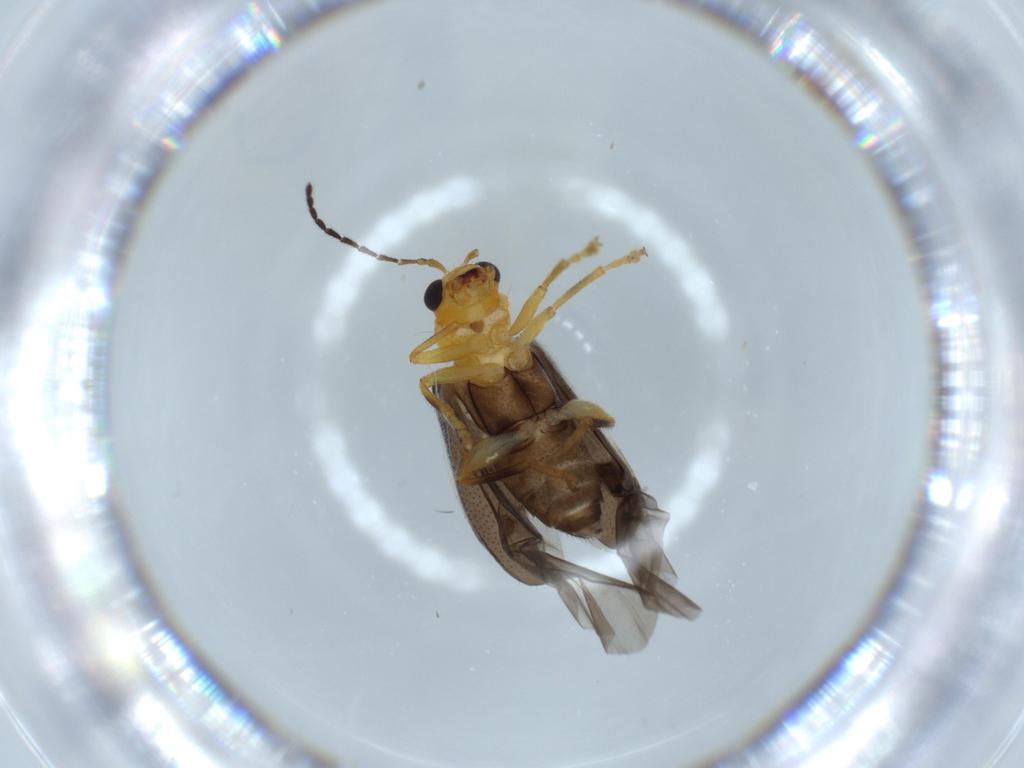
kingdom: Animalia
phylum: Arthropoda
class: Insecta
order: Coleoptera
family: Chrysomelidae
